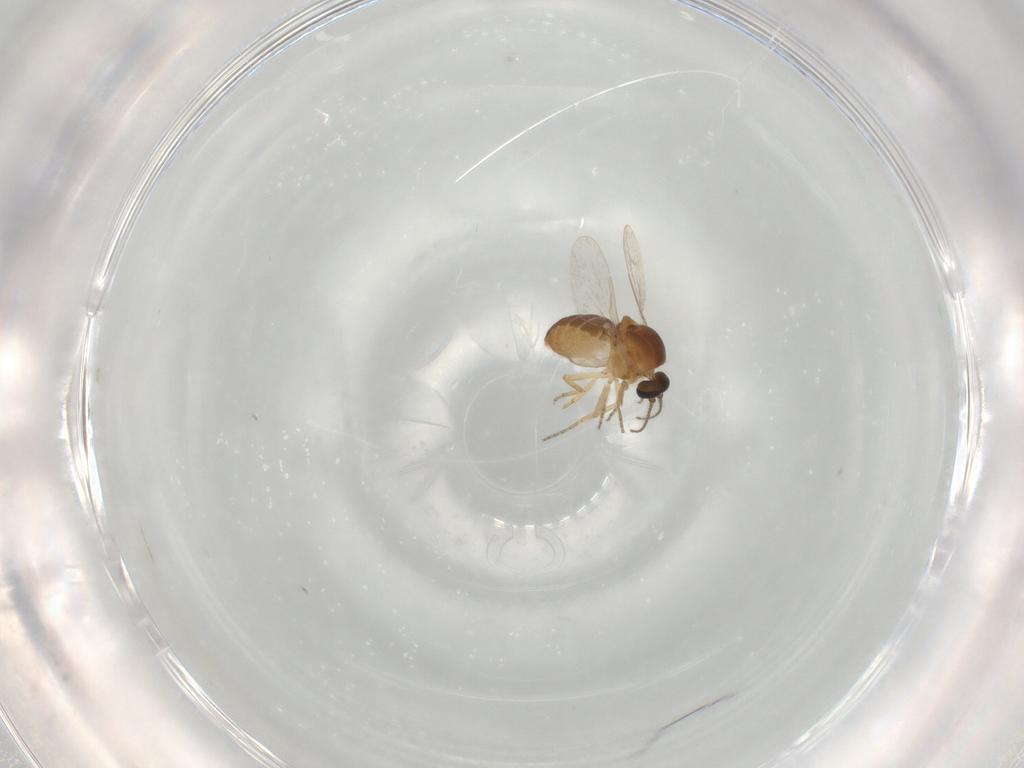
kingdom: Animalia
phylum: Arthropoda
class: Insecta
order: Diptera
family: Ceratopogonidae
